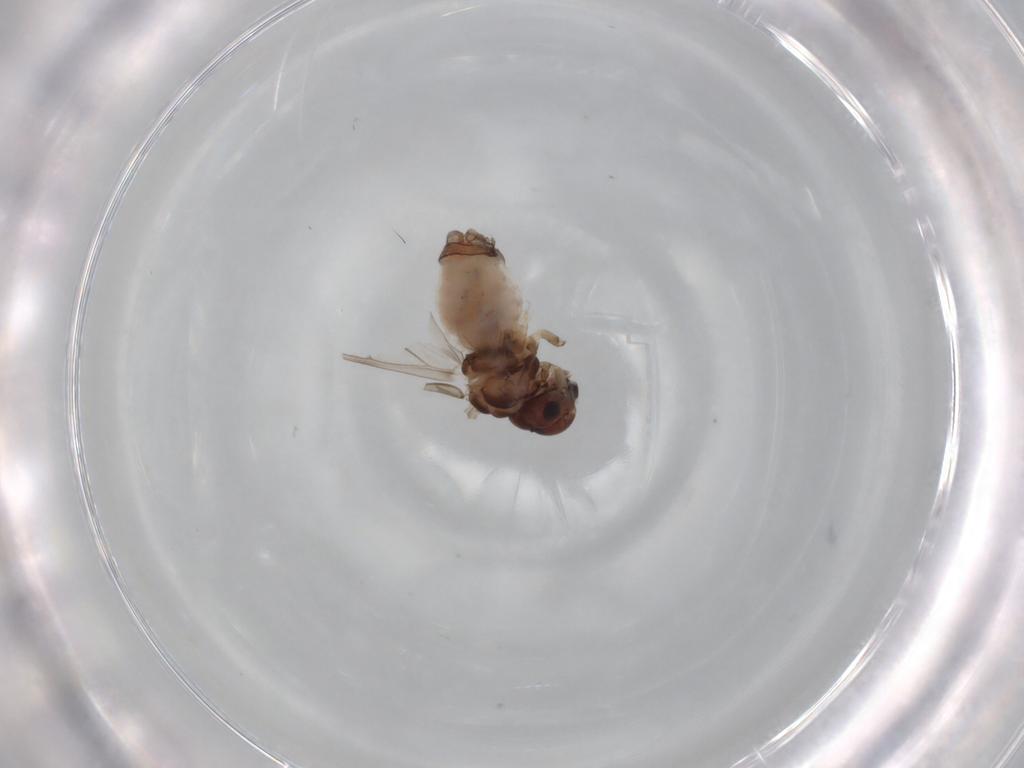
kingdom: Animalia
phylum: Arthropoda
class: Insecta
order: Psocodea
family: Peripsocidae
